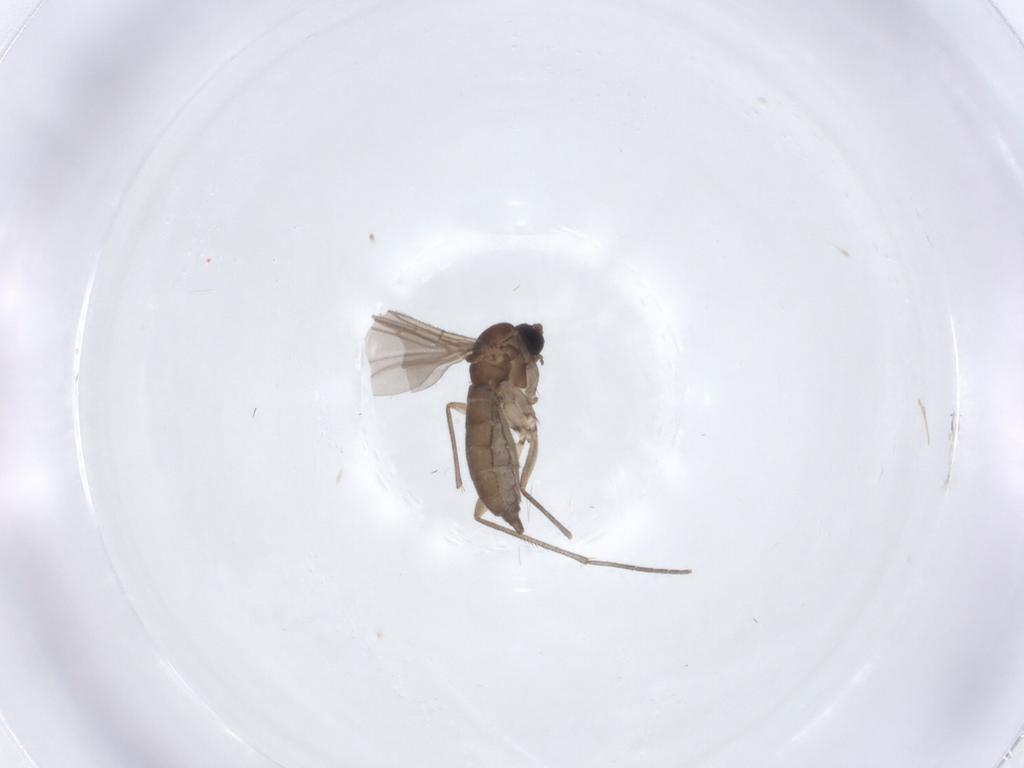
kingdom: Animalia
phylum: Arthropoda
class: Insecta
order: Diptera
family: Sciaridae
